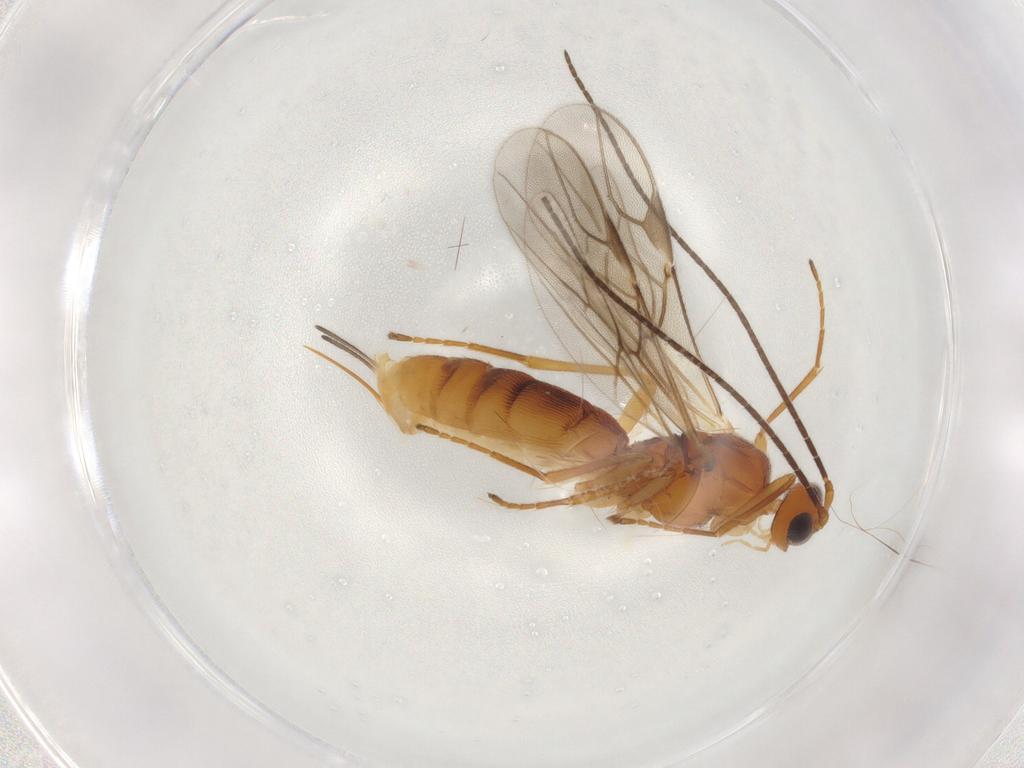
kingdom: Animalia
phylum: Arthropoda
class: Insecta
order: Hymenoptera
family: Braconidae
